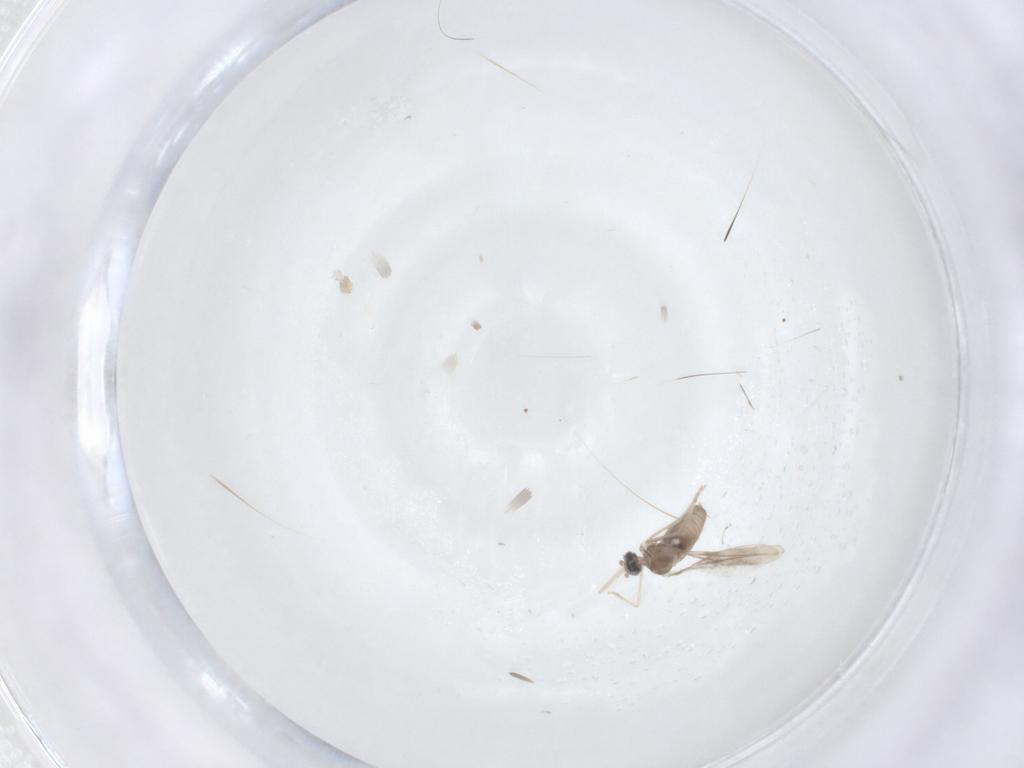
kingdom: Animalia
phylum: Arthropoda
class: Insecta
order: Diptera
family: Cecidomyiidae
